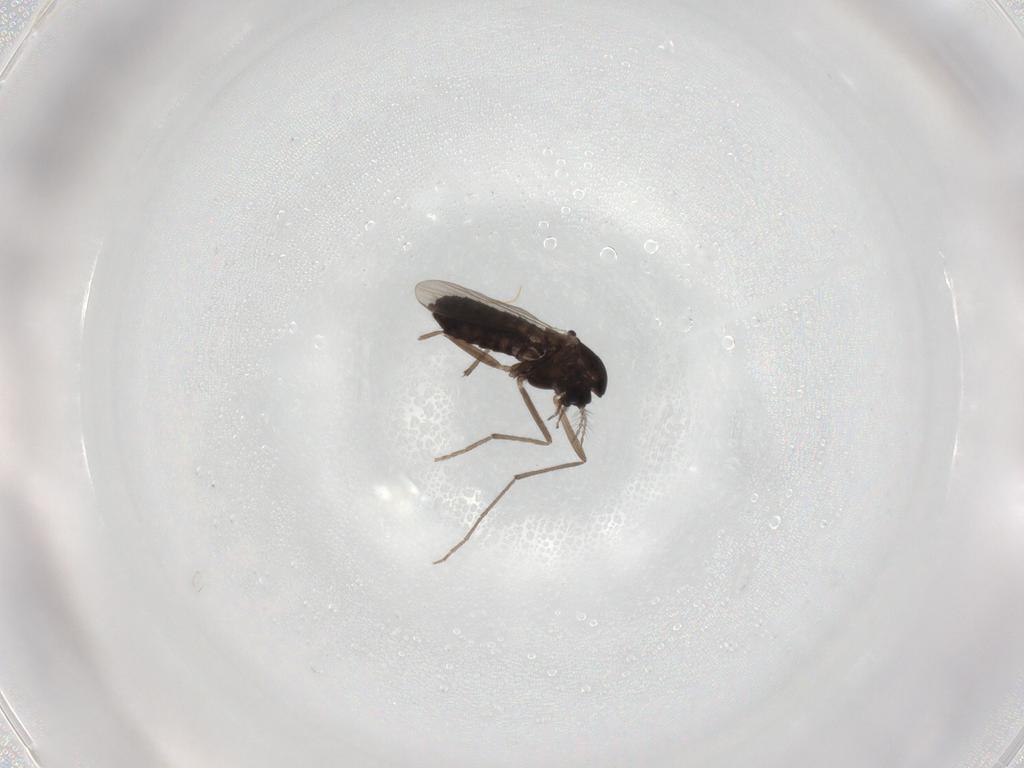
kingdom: Animalia
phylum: Arthropoda
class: Insecta
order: Diptera
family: Chironomidae
